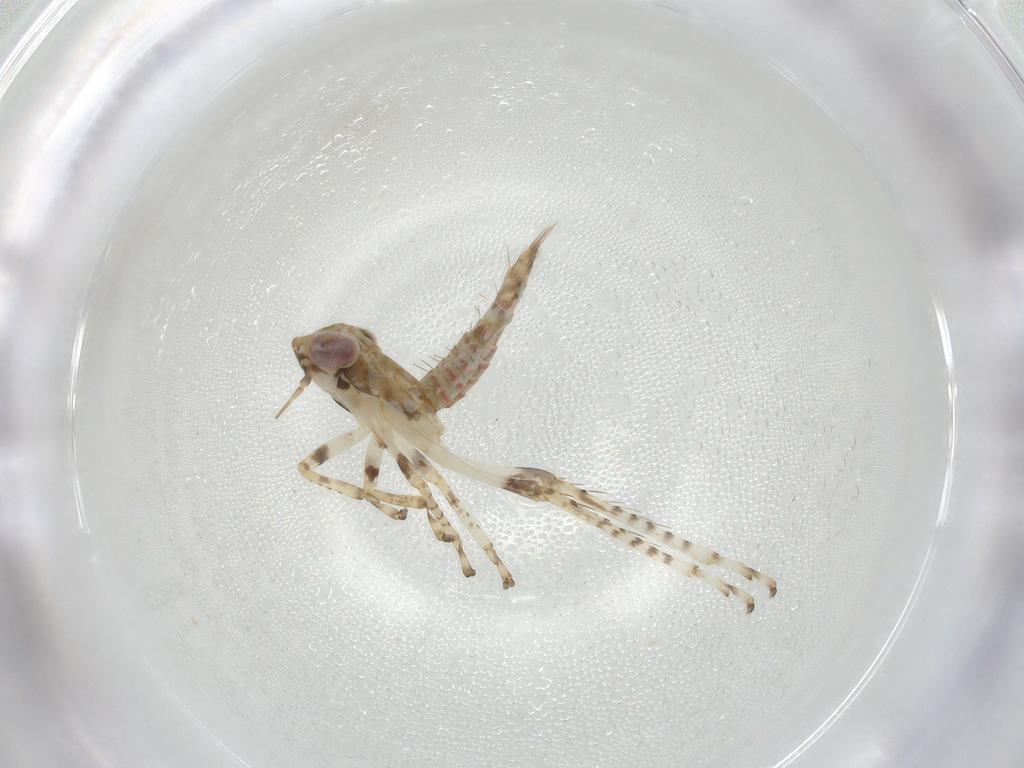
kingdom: Animalia
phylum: Arthropoda
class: Insecta
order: Hemiptera
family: Cicadellidae
